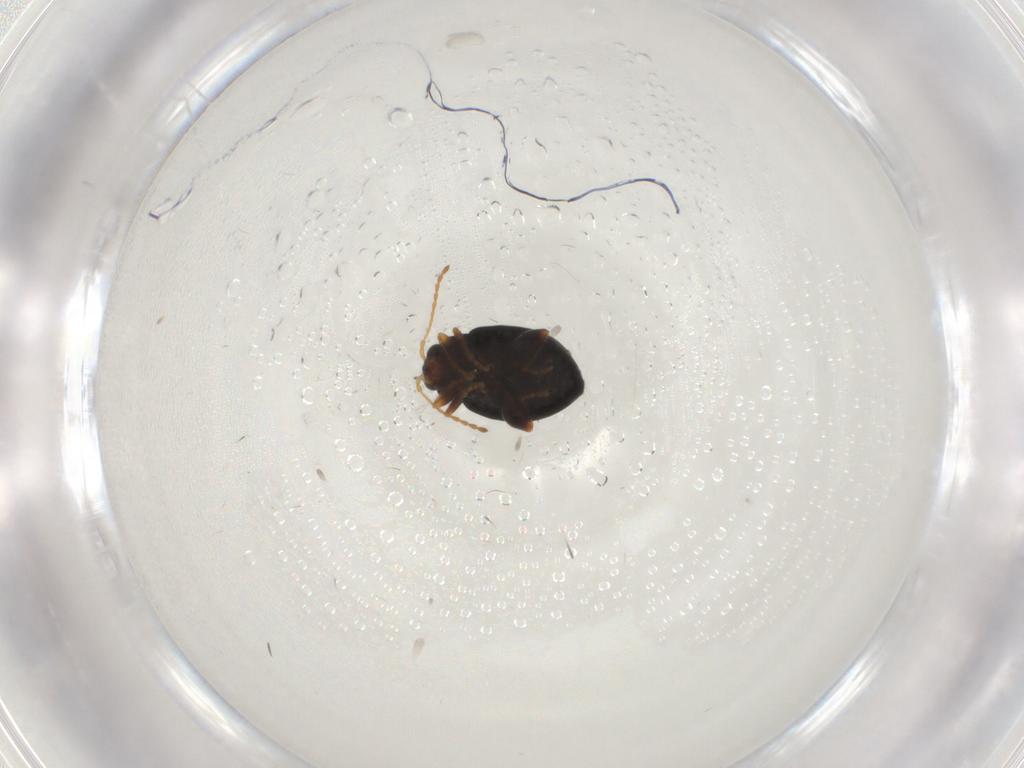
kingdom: Animalia
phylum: Arthropoda
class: Insecta
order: Coleoptera
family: Chrysomelidae
